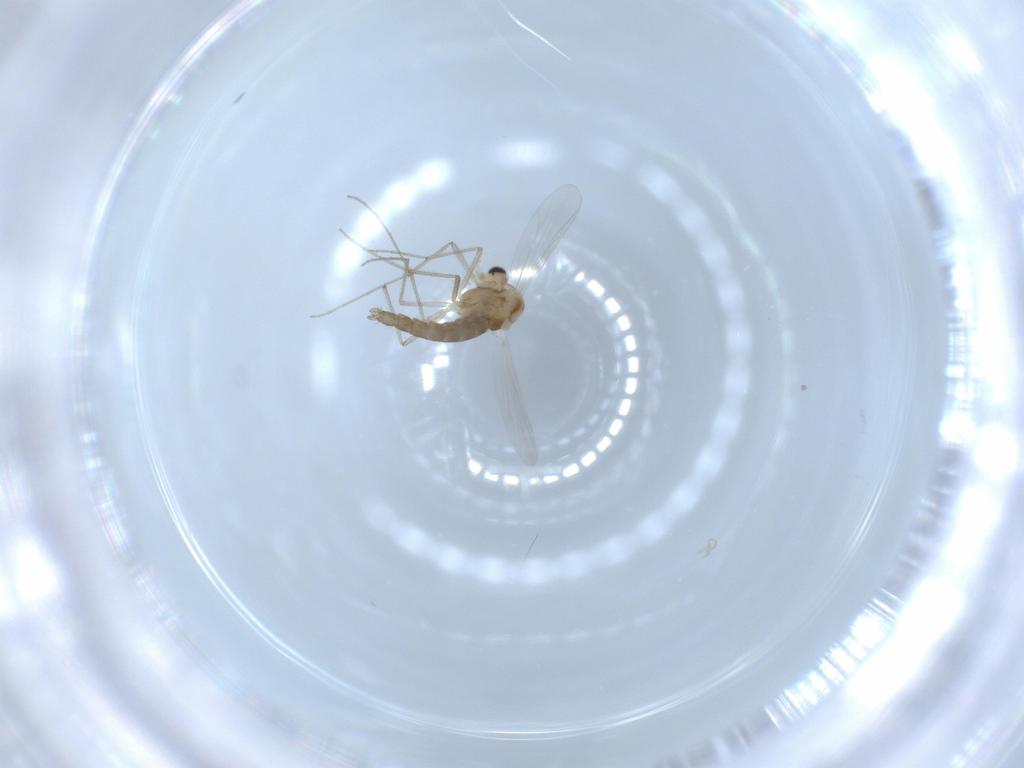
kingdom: Animalia
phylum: Arthropoda
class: Insecta
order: Diptera
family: Chironomidae
